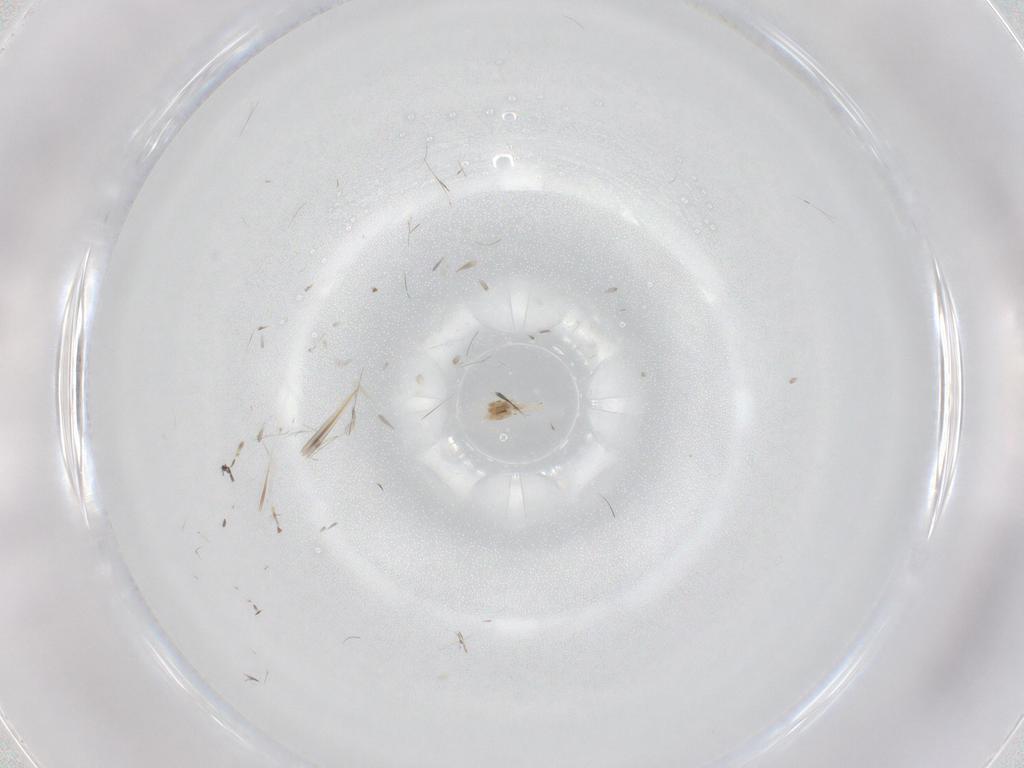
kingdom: Animalia
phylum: Arthropoda
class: Insecta
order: Diptera
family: Phoridae
